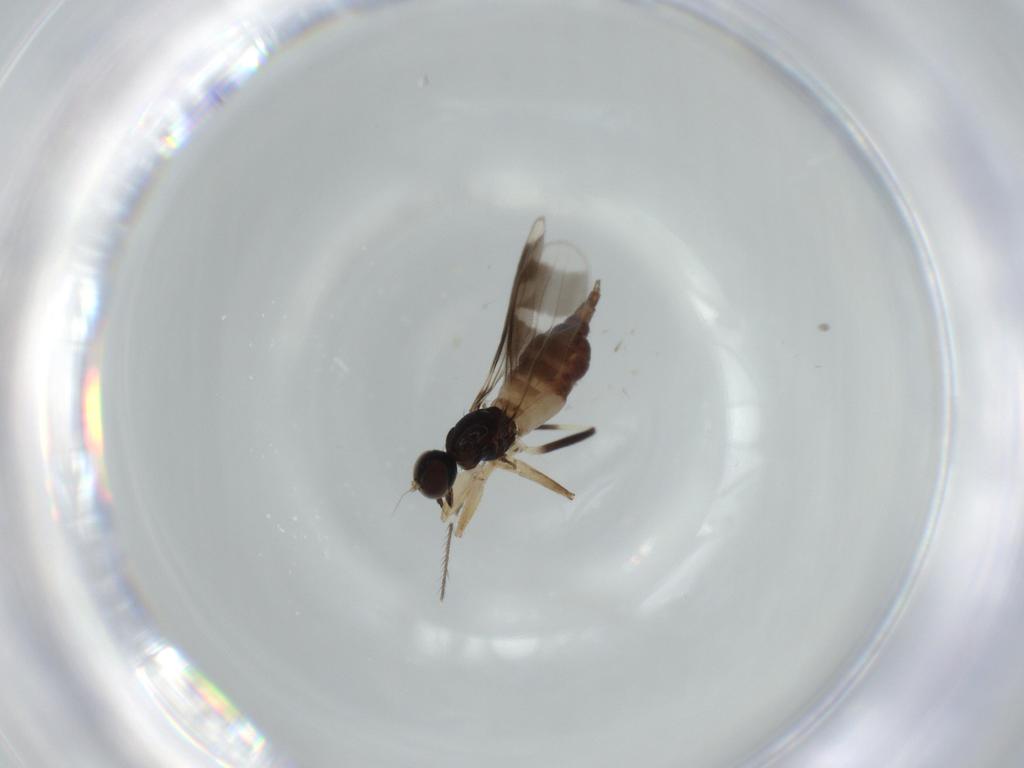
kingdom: Animalia
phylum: Arthropoda
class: Insecta
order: Diptera
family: Hybotidae
